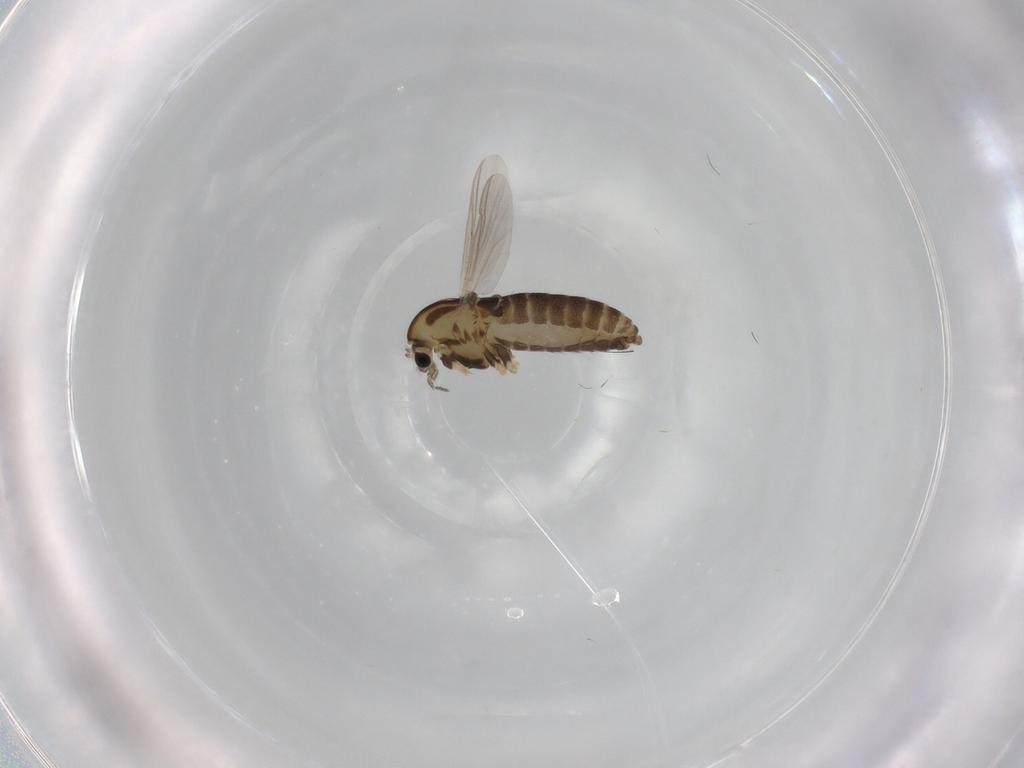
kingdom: Animalia
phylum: Arthropoda
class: Insecta
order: Diptera
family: Chironomidae
